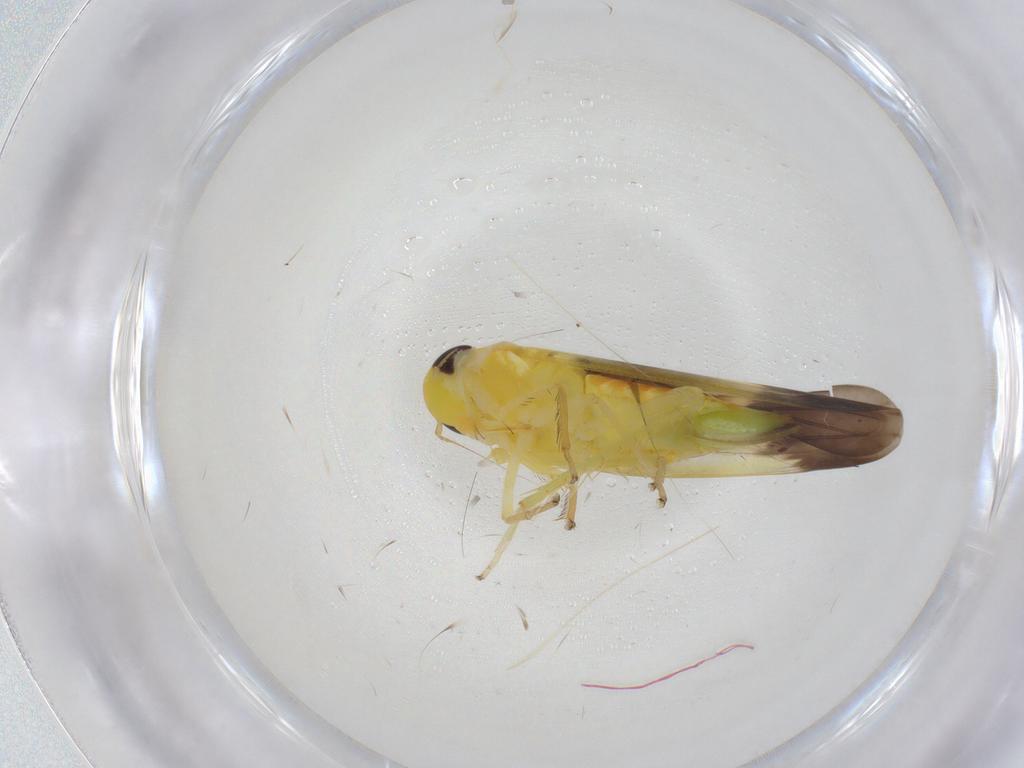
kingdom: Animalia
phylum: Arthropoda
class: Insecta
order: Hemiptera
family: Cicadellidae
